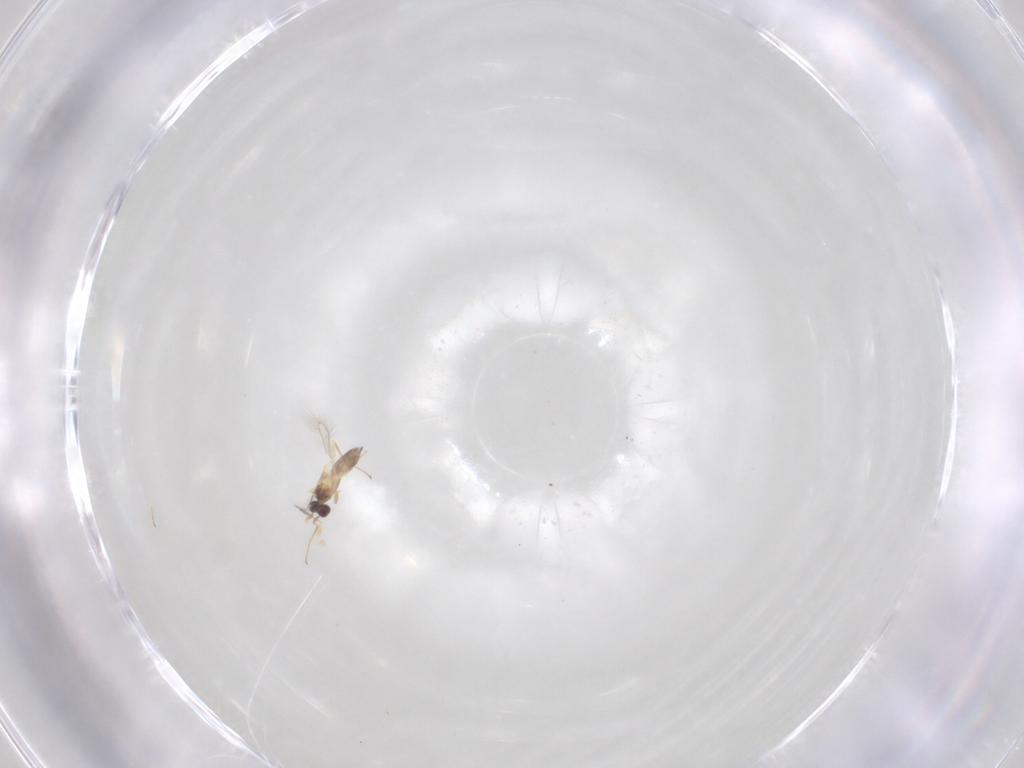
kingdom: Animalia
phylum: Arthropoda
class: Insecta
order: Hymenoptera
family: Mymaridae
